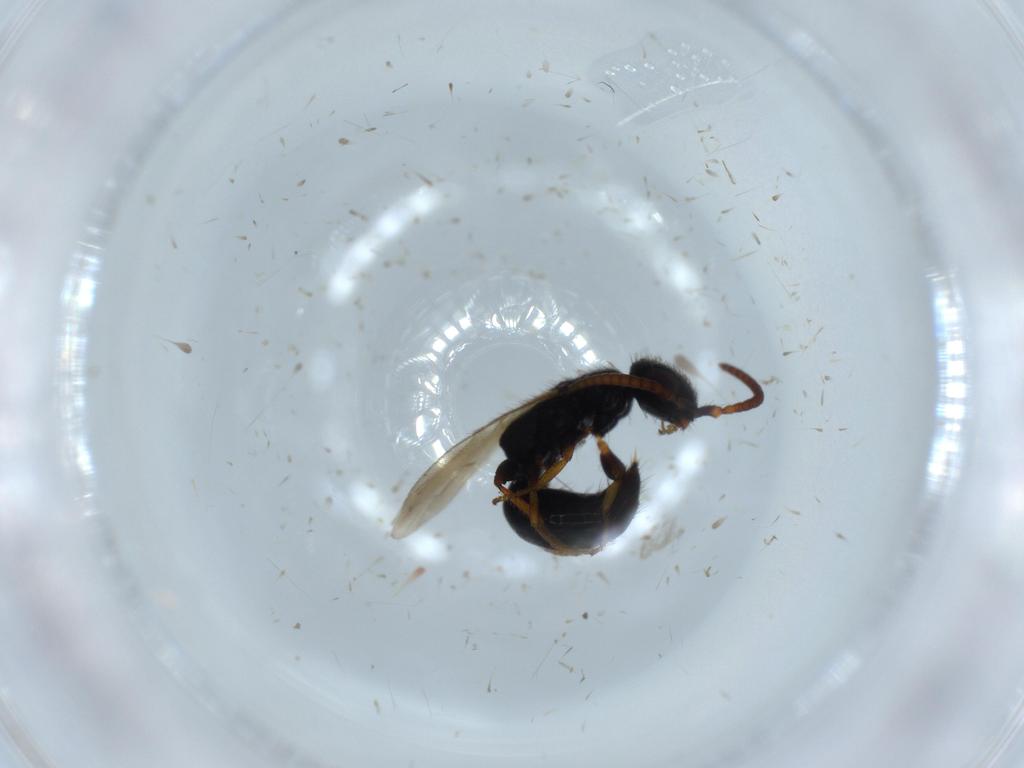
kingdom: Animalia
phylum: Arthropoda
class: Insecta
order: Hymenoptera
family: Bethylidae
